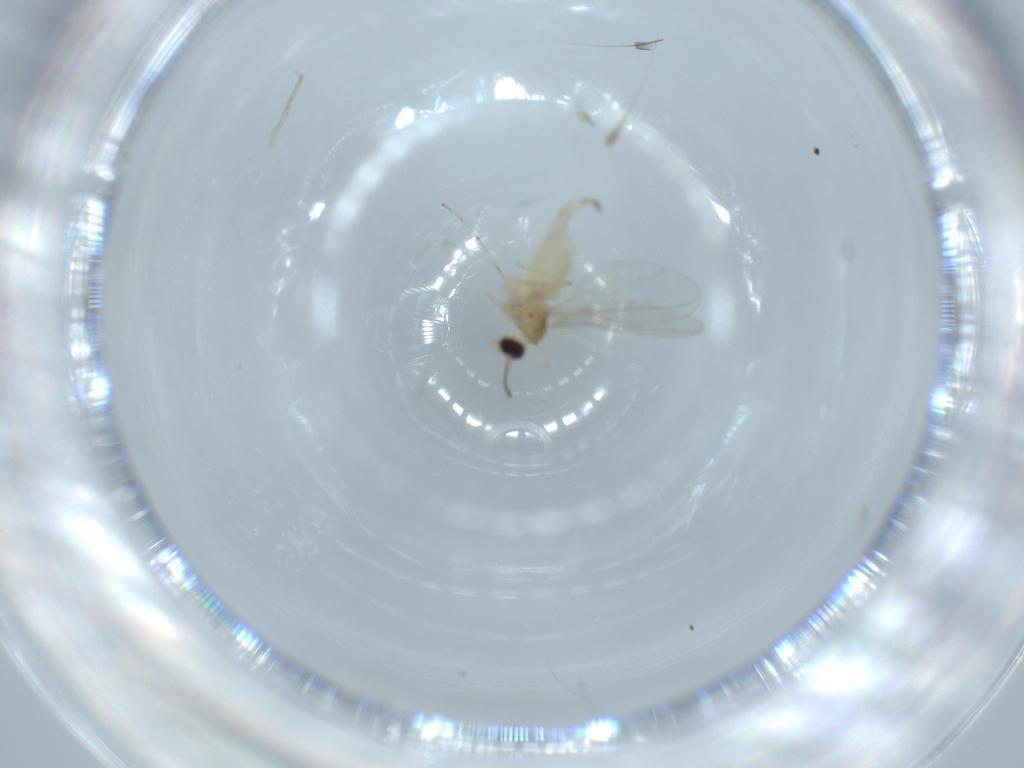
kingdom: Animalia
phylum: Arthropoda
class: Insecta
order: Diptera
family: Cecidomyiidae
